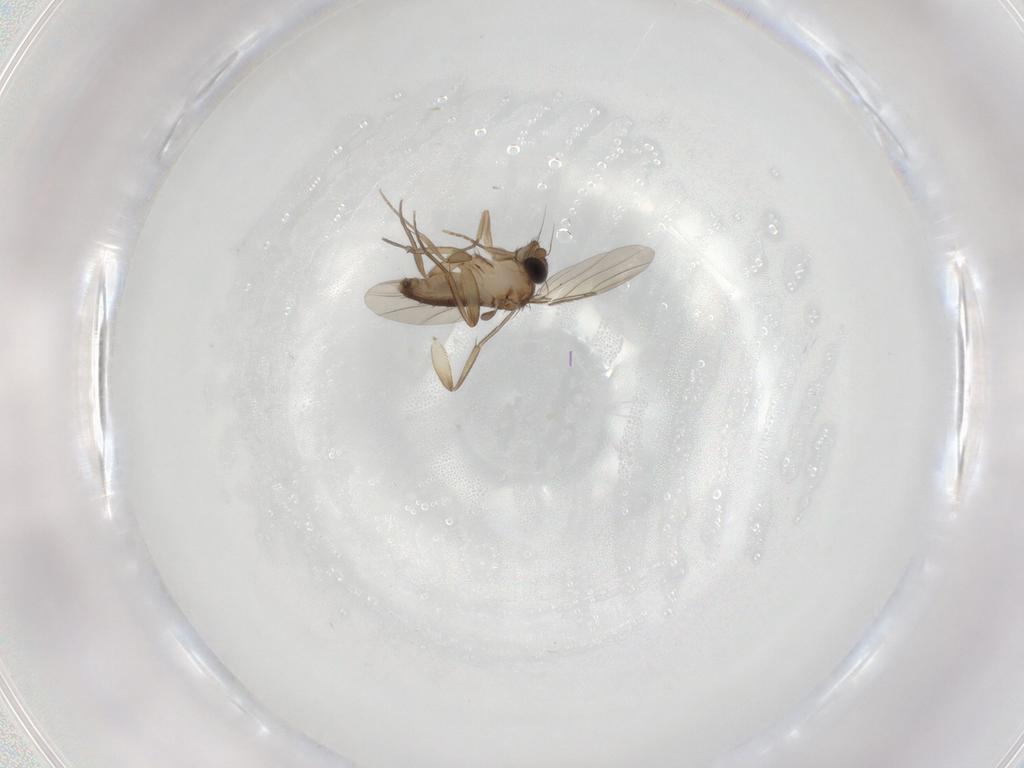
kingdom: Animalia
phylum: Arthropoda
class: Insecta
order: Diptera
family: Phoridae
